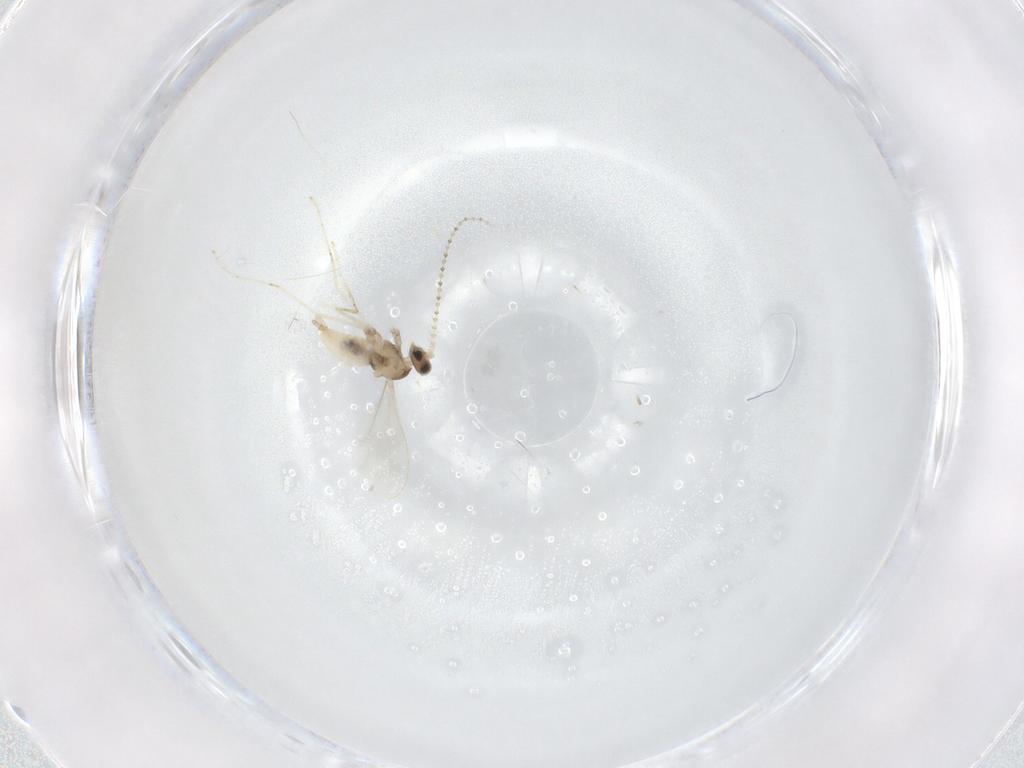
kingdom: Animalia
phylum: Arthropoda
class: Insecta
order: Diptera
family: Cecidomyiidae
